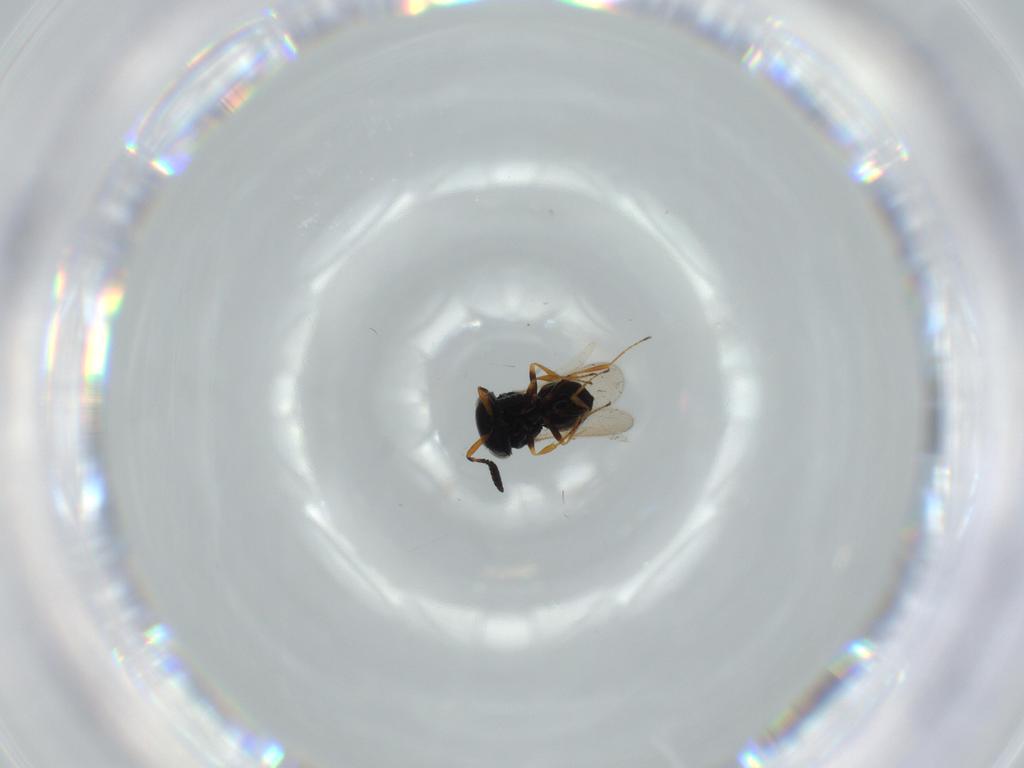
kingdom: Animalia
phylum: Arthropoda
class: Insecta
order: Hymenoptera
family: Scelionidae
